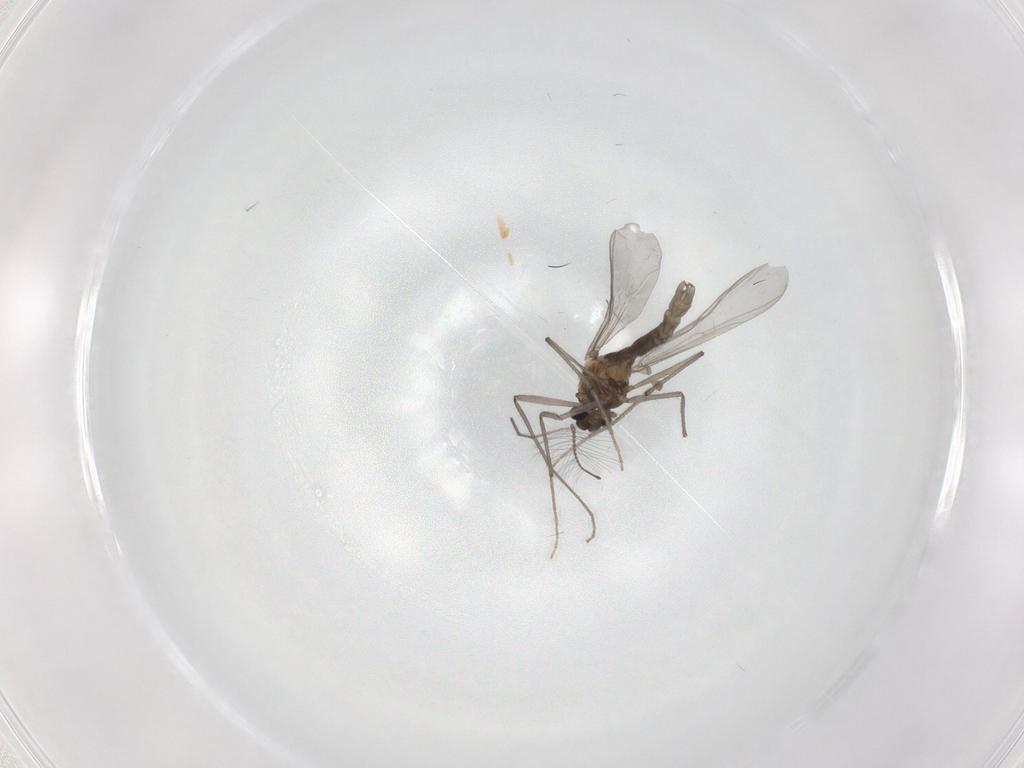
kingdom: Animalia
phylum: Arthropoda
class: Insecta
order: Diptera
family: Chironomidae
